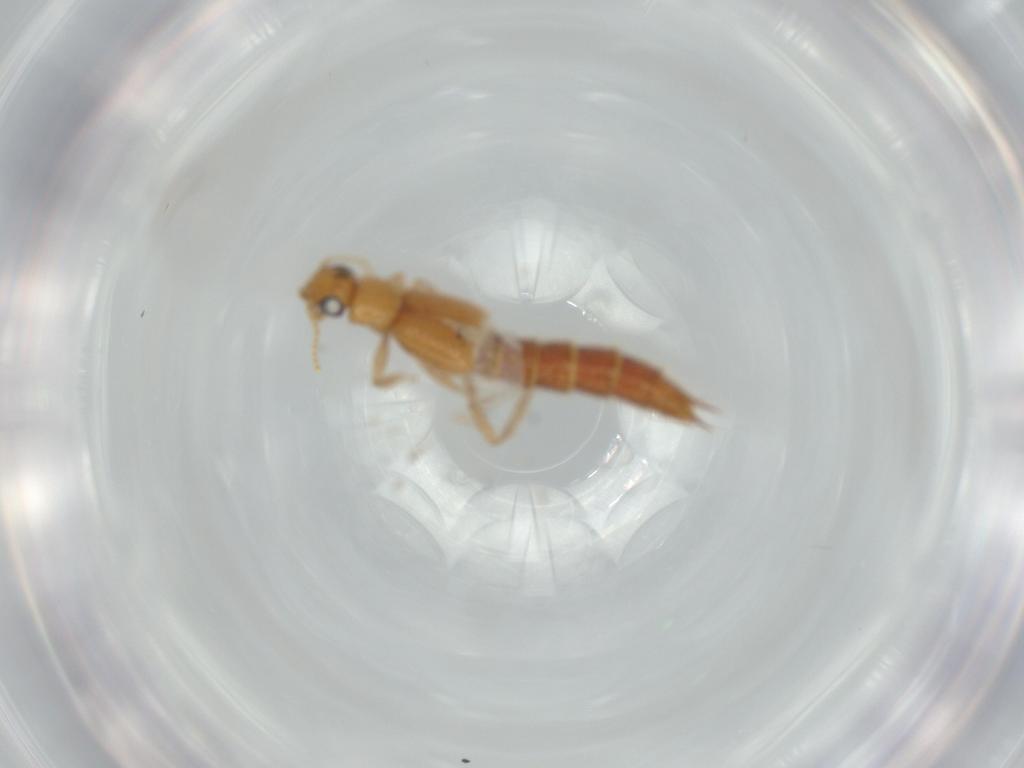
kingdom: Animalia
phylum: Arthropoda
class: Insecta
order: Coleoptera
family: Staphylinidae
